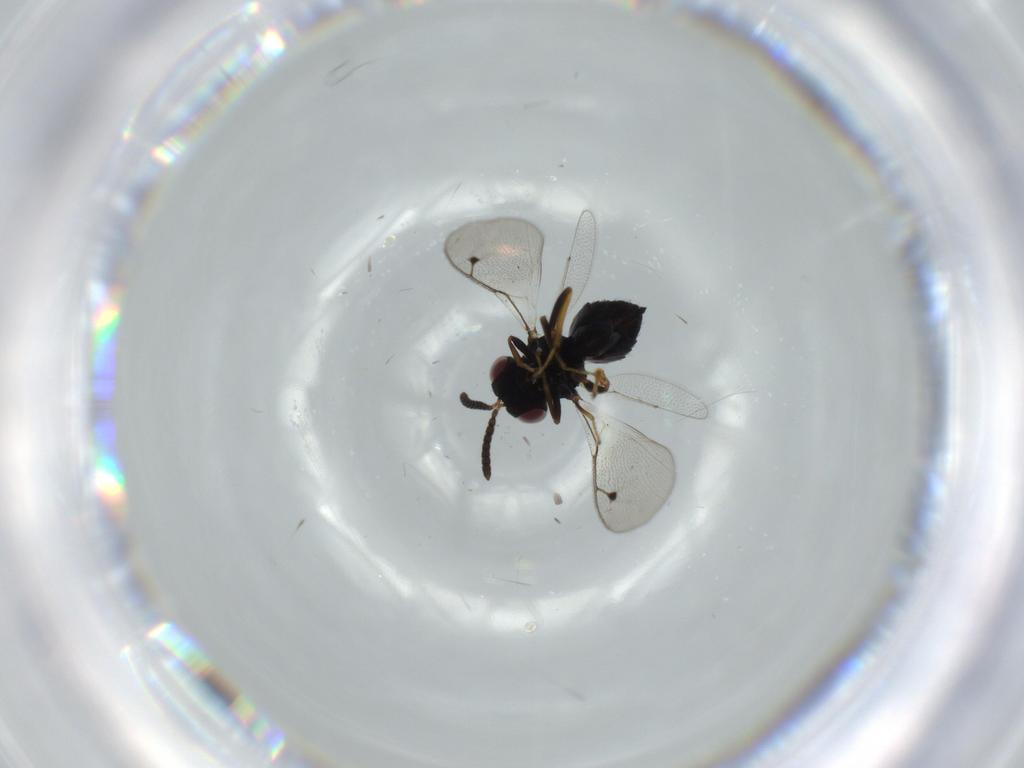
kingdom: Animalia
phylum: Arthropoda
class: Insecta
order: Hymenoptera
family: Eurytomidae
